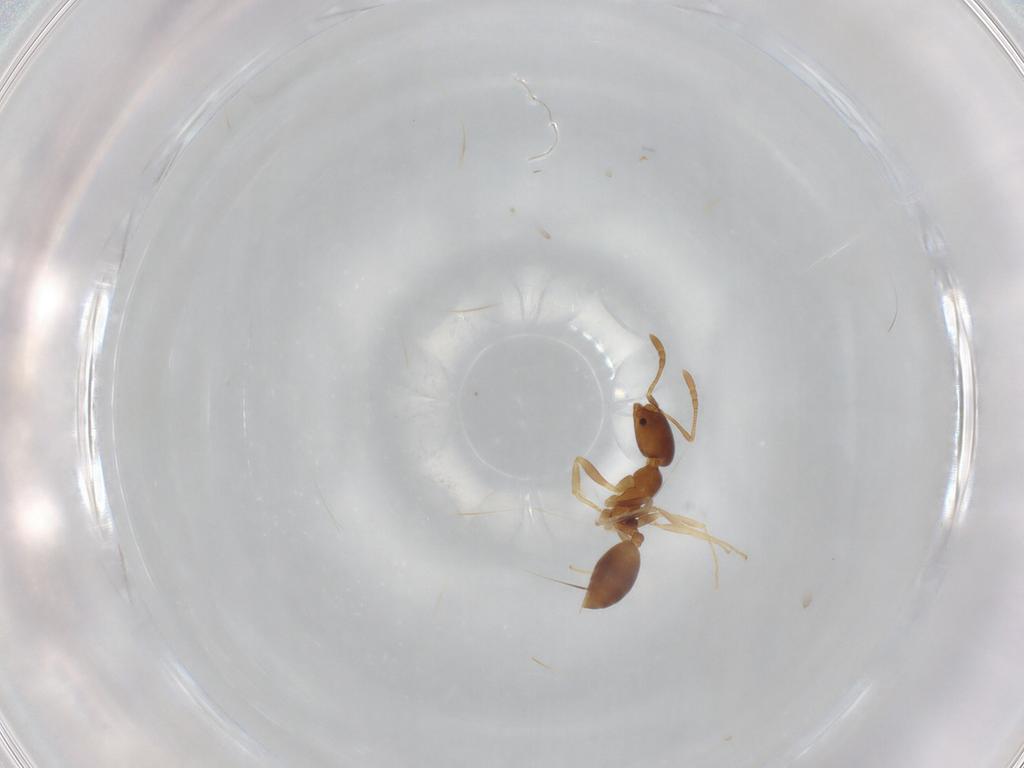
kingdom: Animalia
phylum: Arthropoda
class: Insecta
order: Hymenoptera
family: Formicidae
